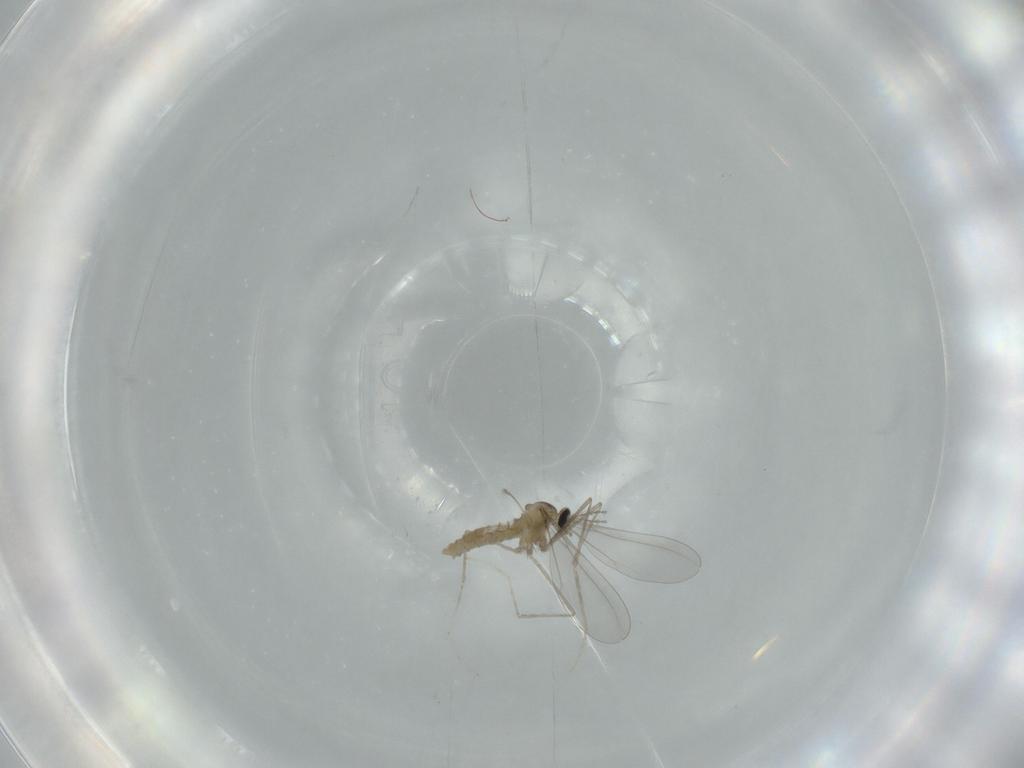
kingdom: Animalia
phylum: Arthropoda
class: Insecta
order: Diptera
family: Cecidomyiidae
